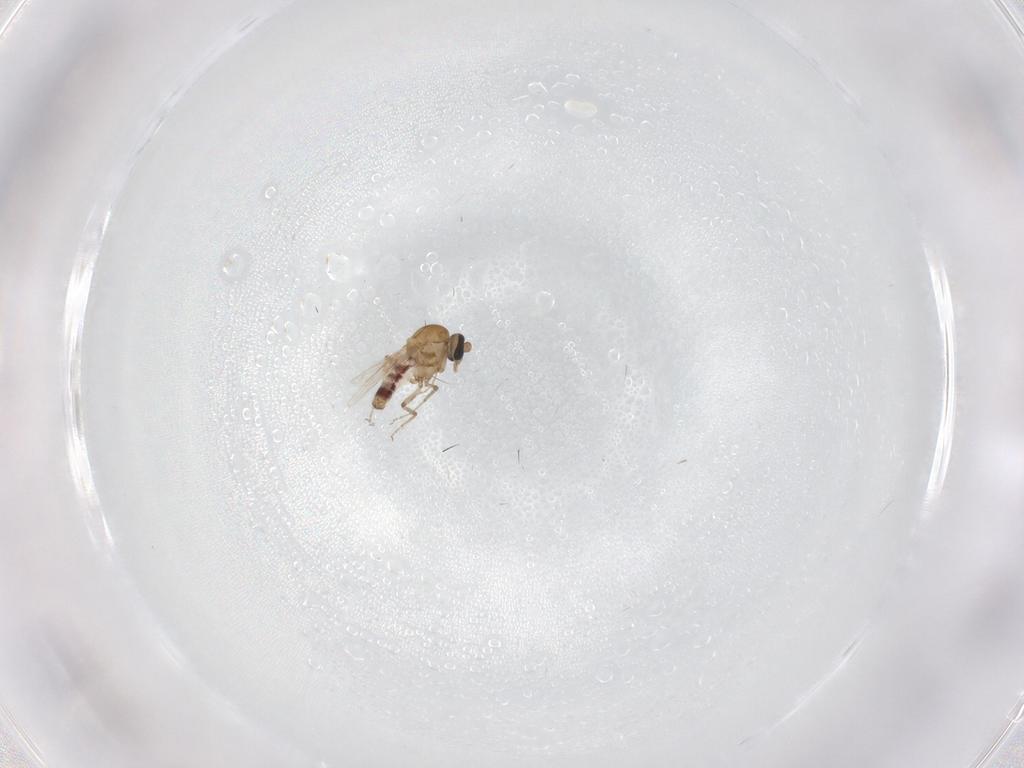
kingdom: Animalia
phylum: Arthropoda
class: Insecta
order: Diptera
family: Ceratopogonidae
